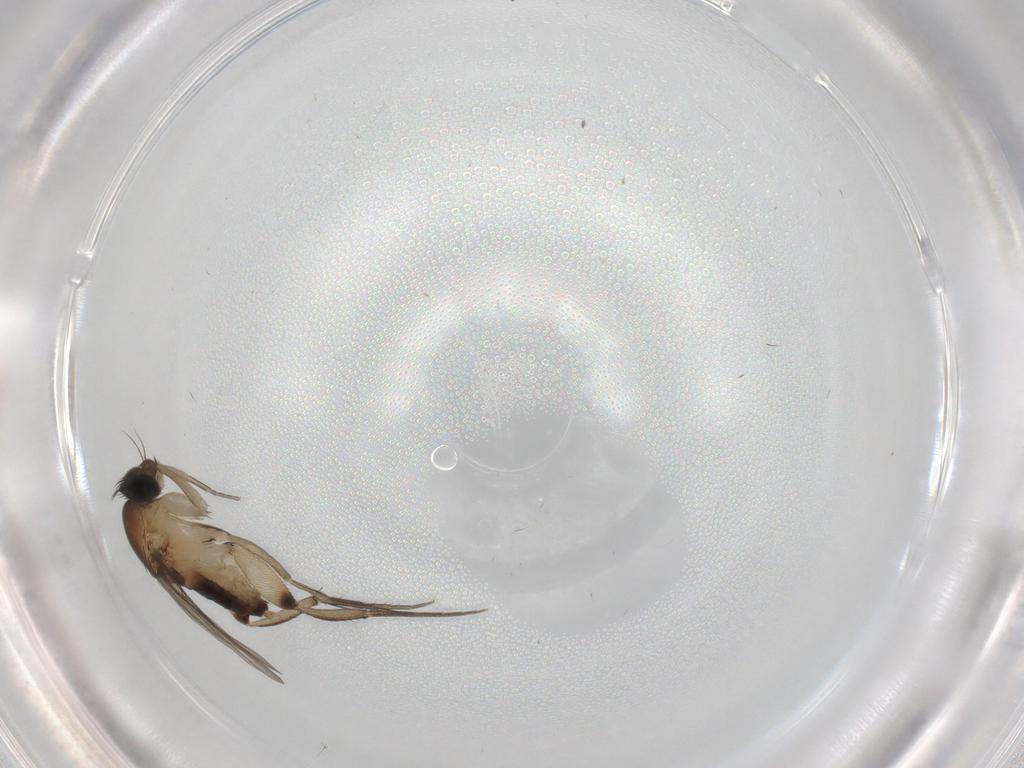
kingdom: Animalia
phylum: Arthropoda
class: Insecta
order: Diptera
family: Phoridae
